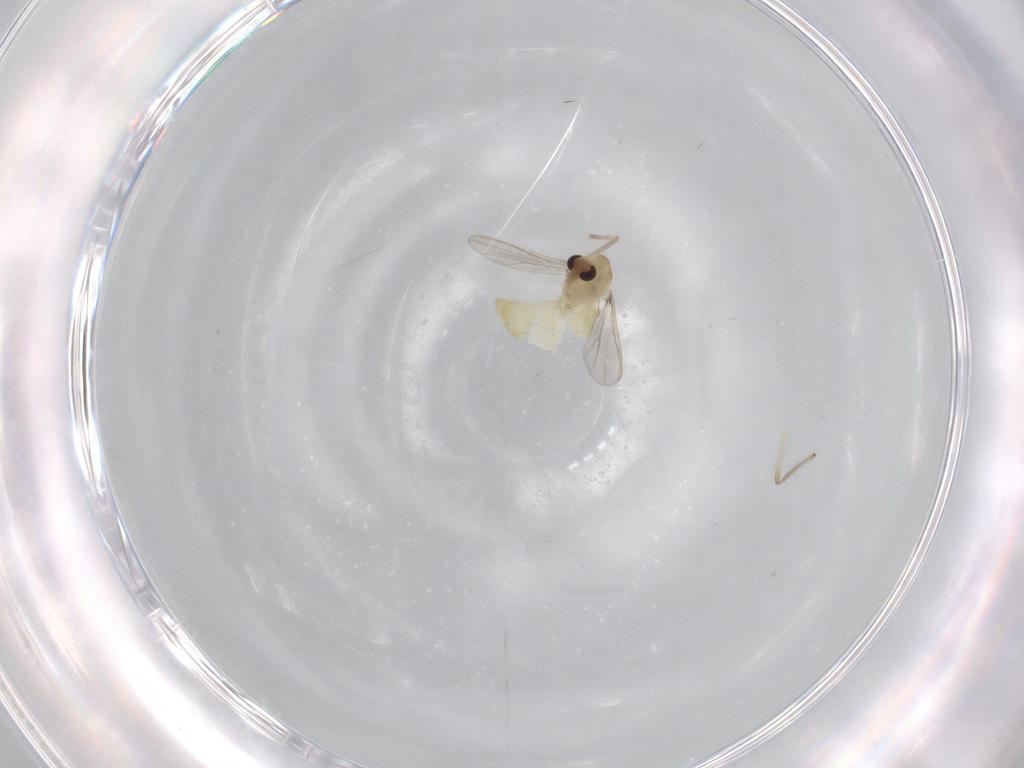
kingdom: Animalia
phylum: Arthropoda
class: Insecta
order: Diptera
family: Chironomidae
